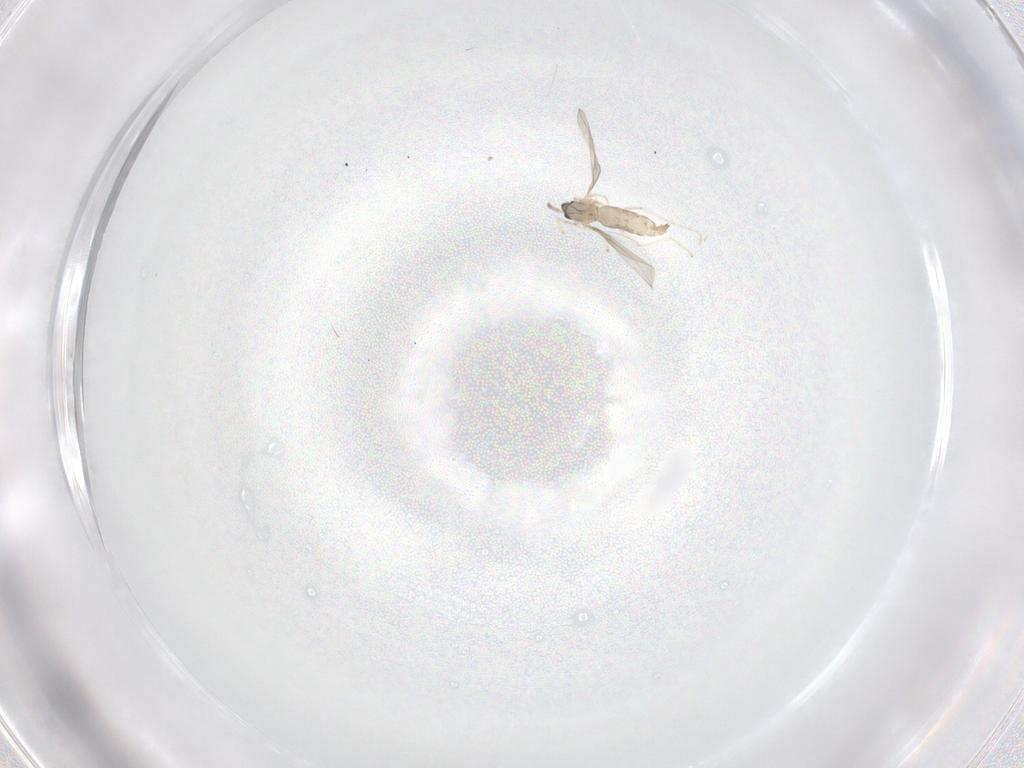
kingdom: Animalia
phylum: Arthropoda
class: Insecta
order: Diptera
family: Cecidomyiidae
